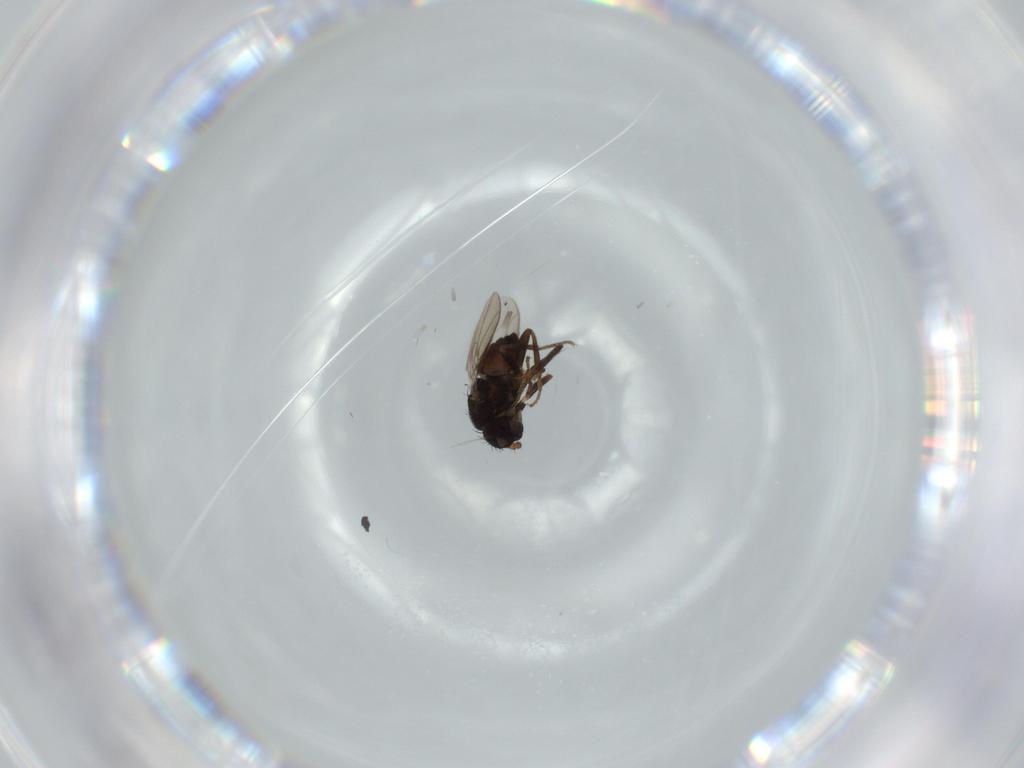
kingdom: Animalia
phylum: Arthropoda
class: Insecta
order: Diptera
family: Sphaeroceridae
